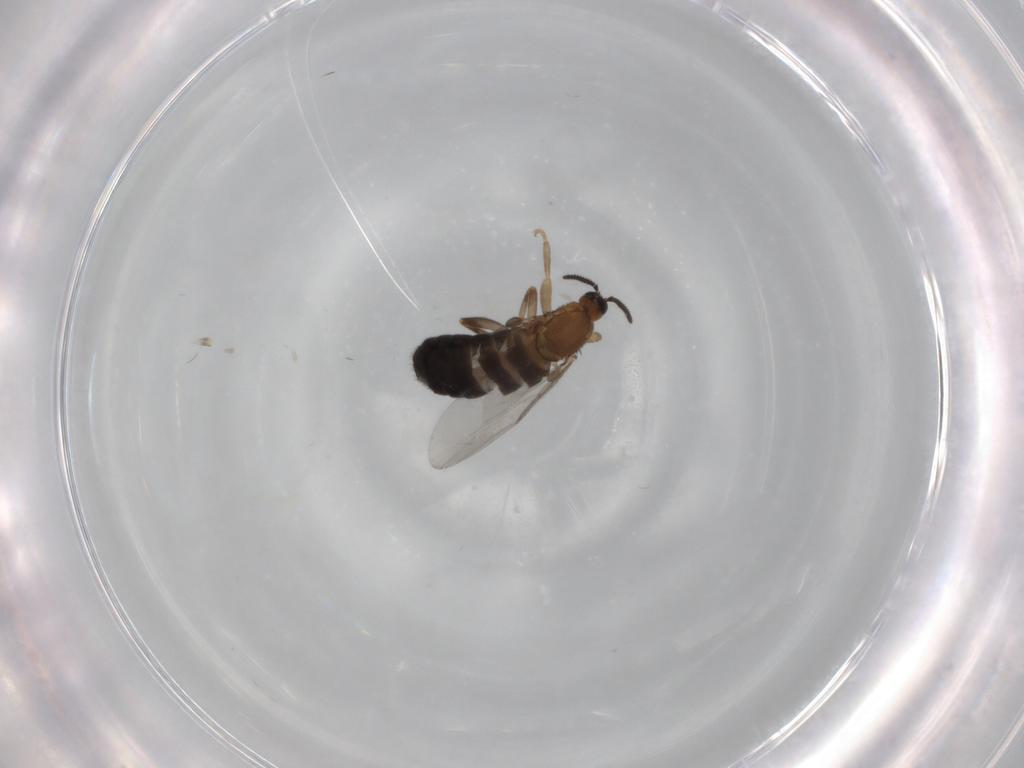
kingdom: Animalia
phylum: Arthropoda
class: Insecta
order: Diptera
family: Scatopsidae
